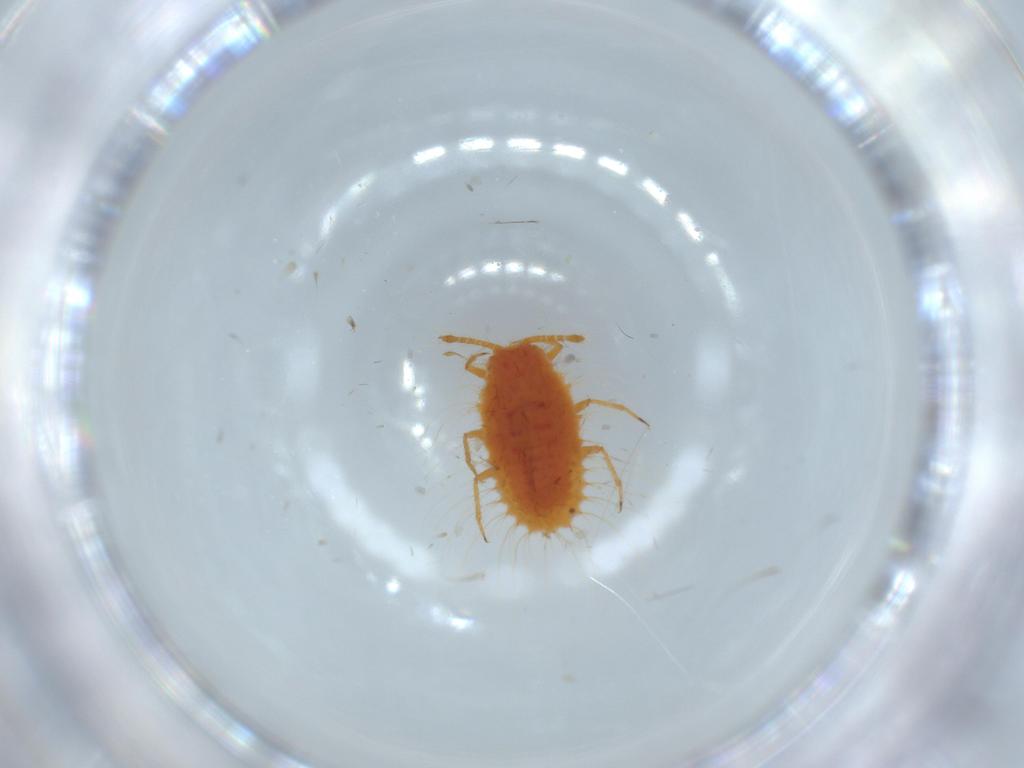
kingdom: Animalia
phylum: Arthropoda
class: Insecta
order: Hemiptera
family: Coccoidea_incertae_sedis
